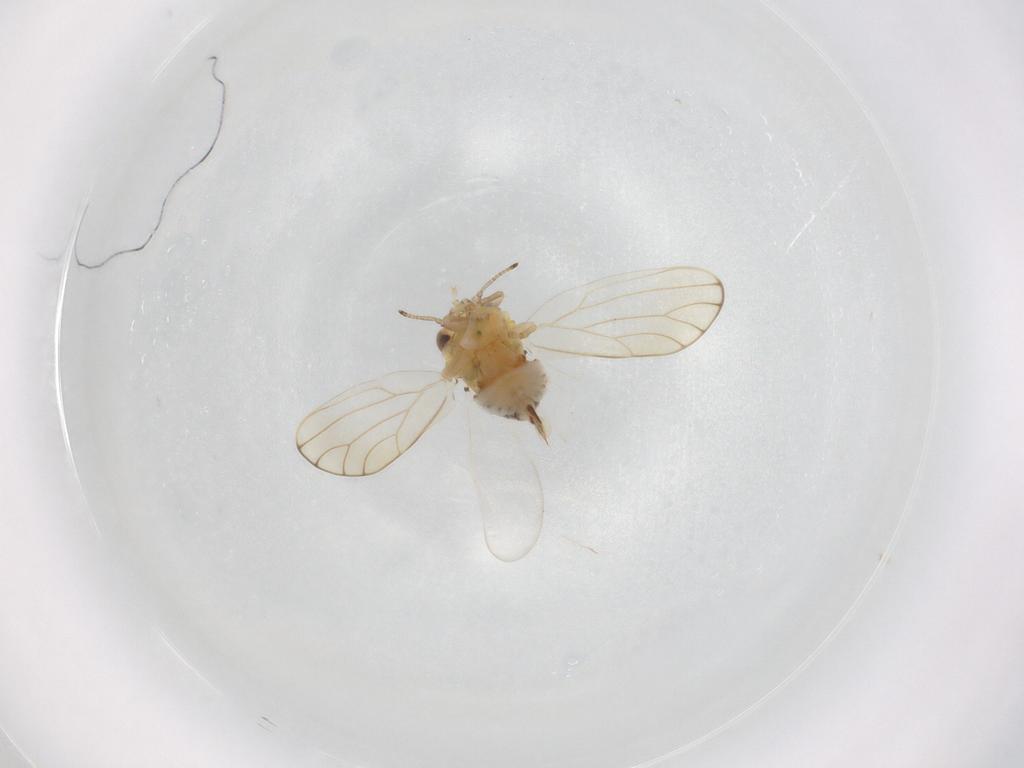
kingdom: Animalia
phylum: Arthropoda
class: Insecta
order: Hemiptera
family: Aphalaridae
